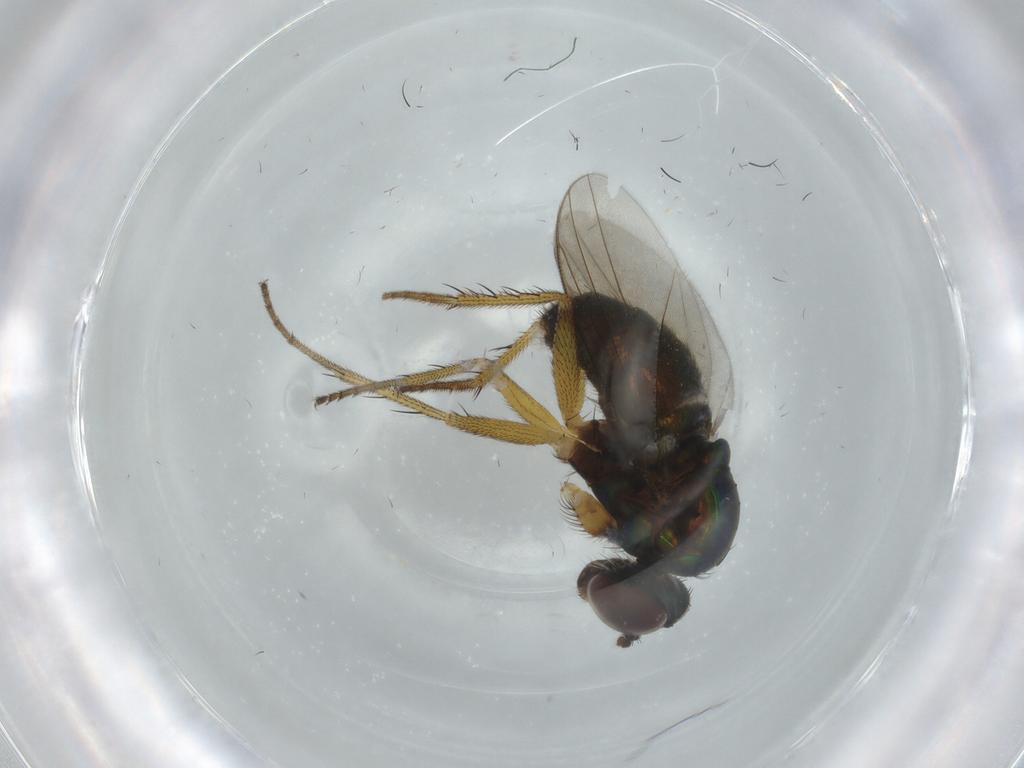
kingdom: Animalia
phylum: Arthropoda
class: Insecta
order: Diptera
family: Dolichopodidae
